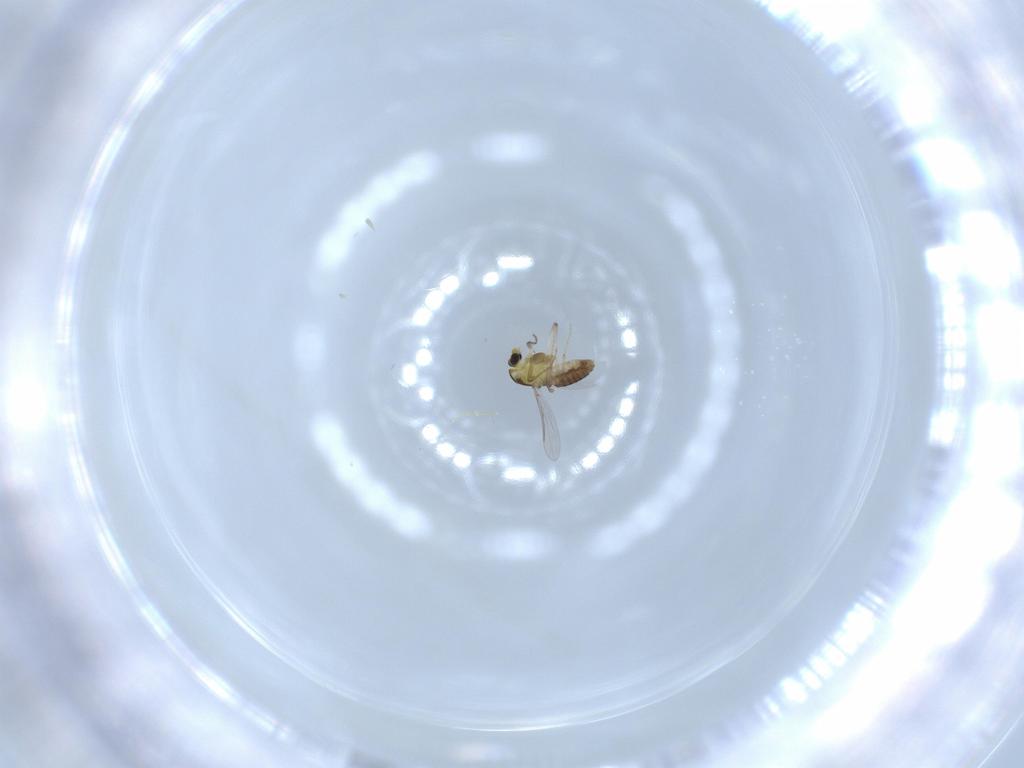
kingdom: Animalia
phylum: Arthropoda
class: Insecta
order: Diptera
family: Chironomidae
